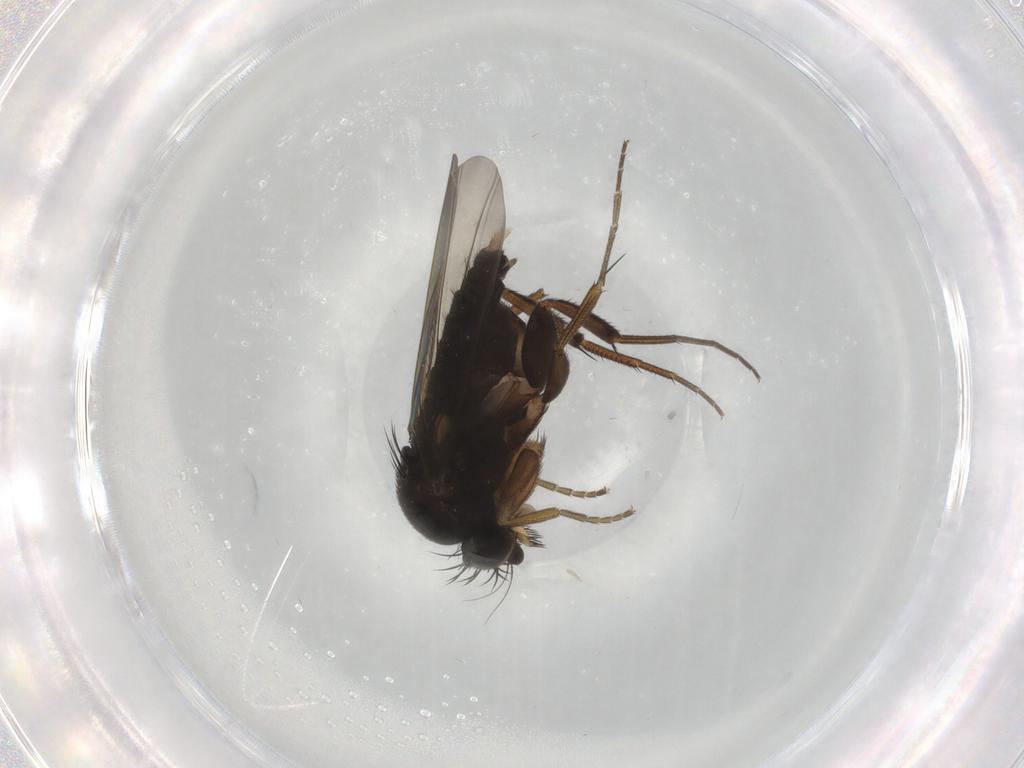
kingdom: Animalia
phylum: Arthropoda
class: Insecta
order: Diptera
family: Phoridae
